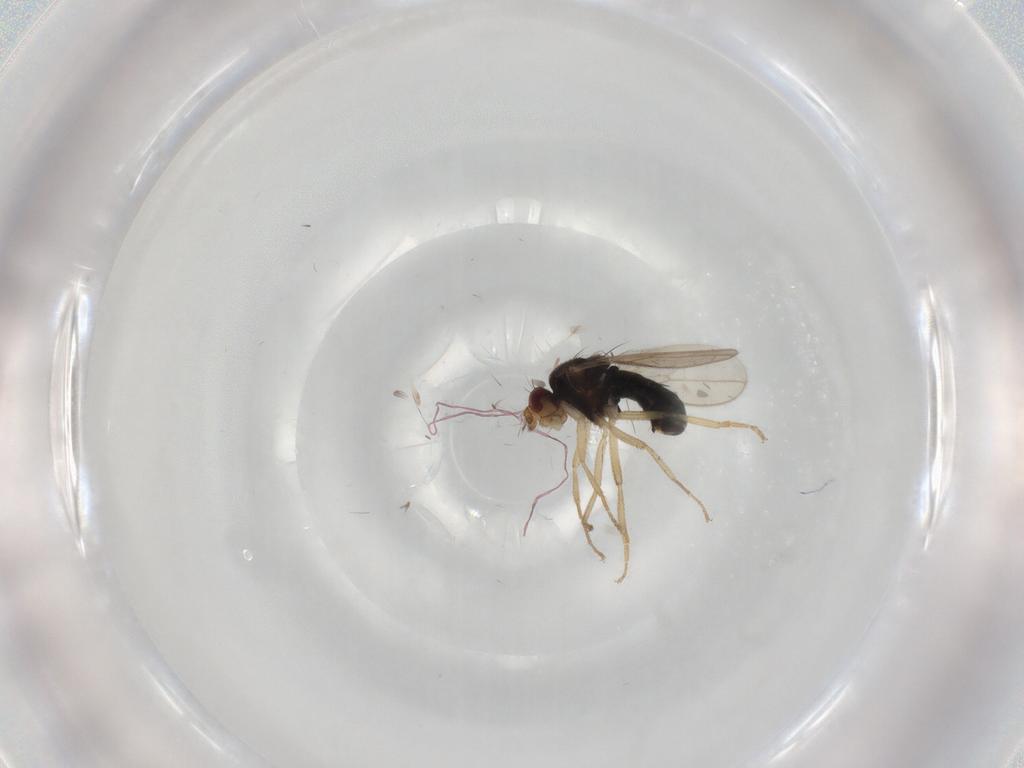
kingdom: Animalia
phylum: Arthropoda
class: Insecta
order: Diptera
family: Sphaeroceridae
